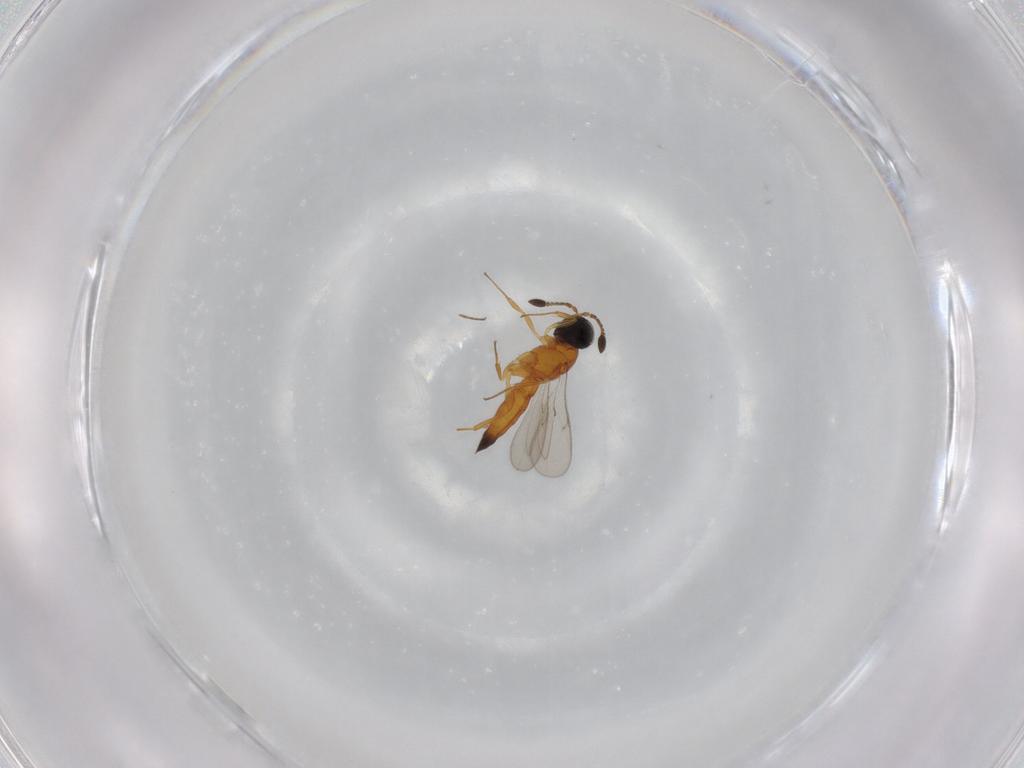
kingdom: Animalia
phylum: Arthropoda
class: Insecta
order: Hymenoptera
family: Scelionidae
